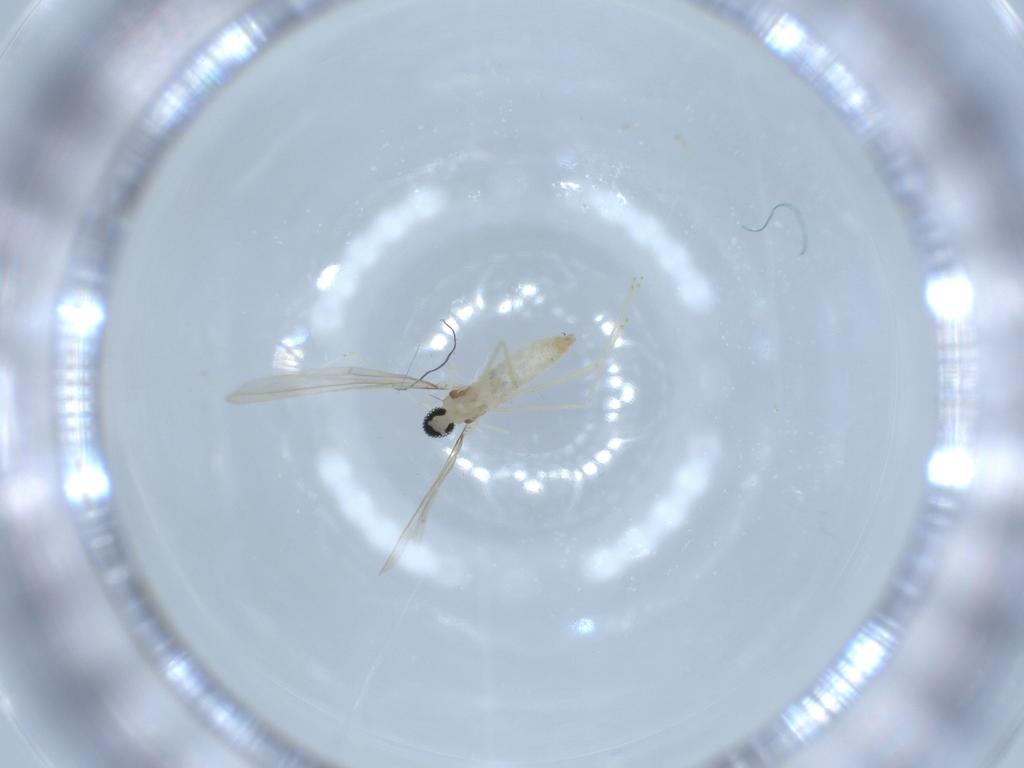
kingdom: Animalia
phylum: Arthropoda
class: Insecta
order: Diptera
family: Cecidomyiidae
